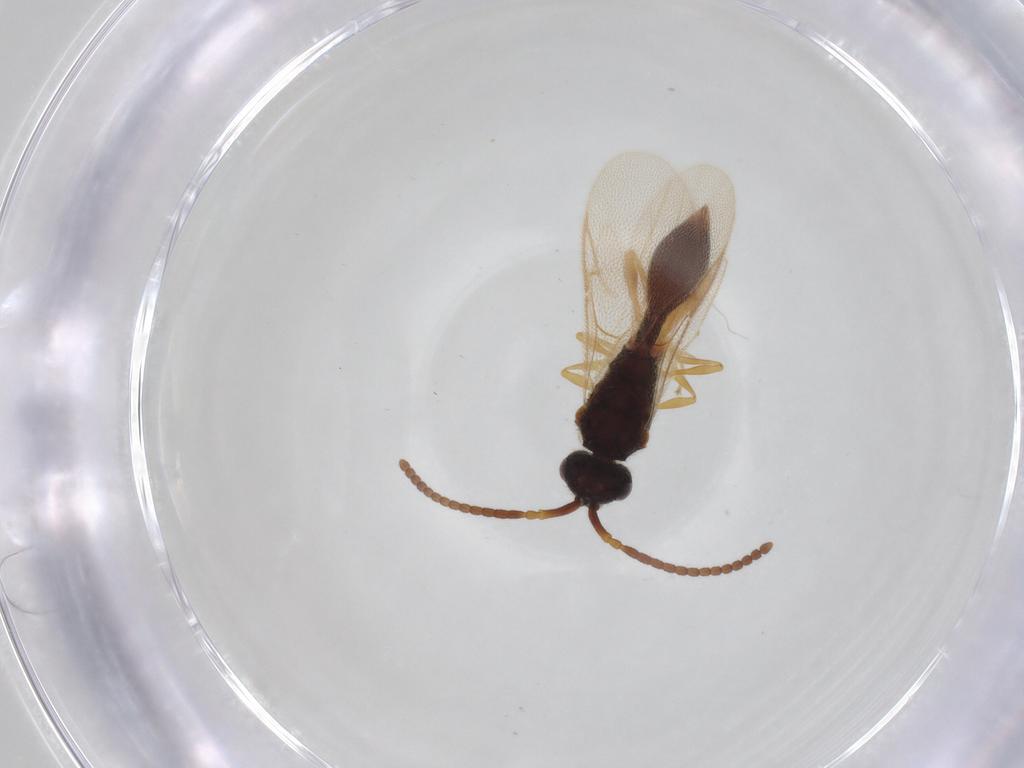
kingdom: Animalia
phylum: Arthropoda
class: Insecta
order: Hymenoptera
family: Diapriidae
